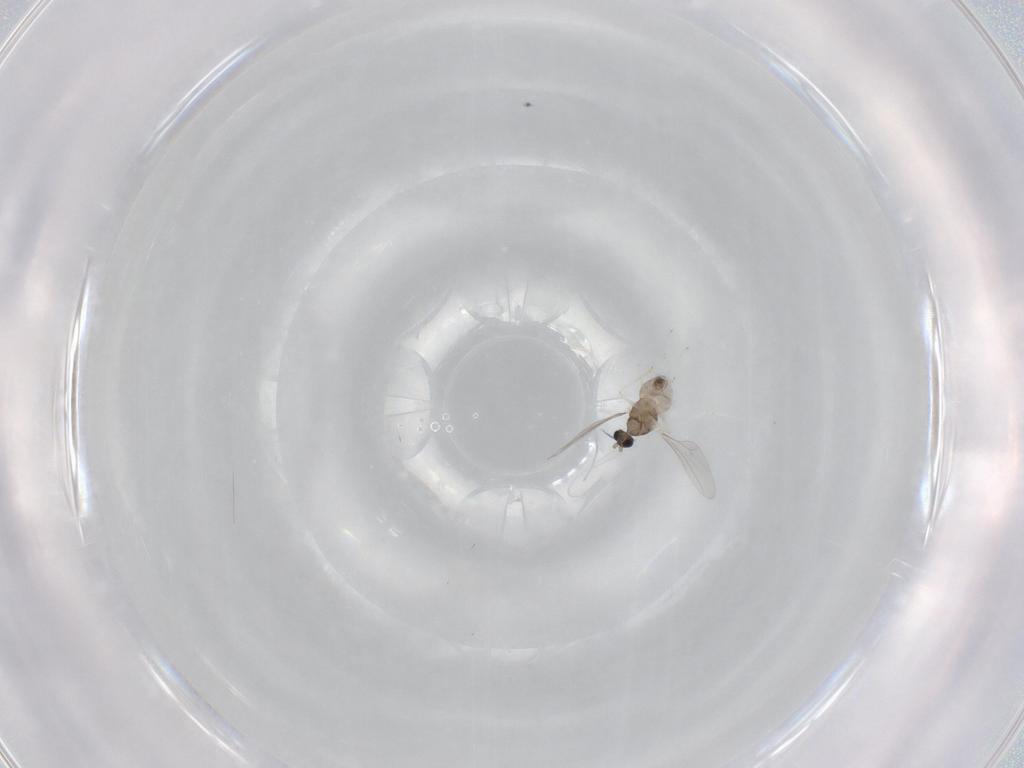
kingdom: Animalia
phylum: Arthropoda
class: Insecta
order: Diptera
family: Cecidomyiidae
